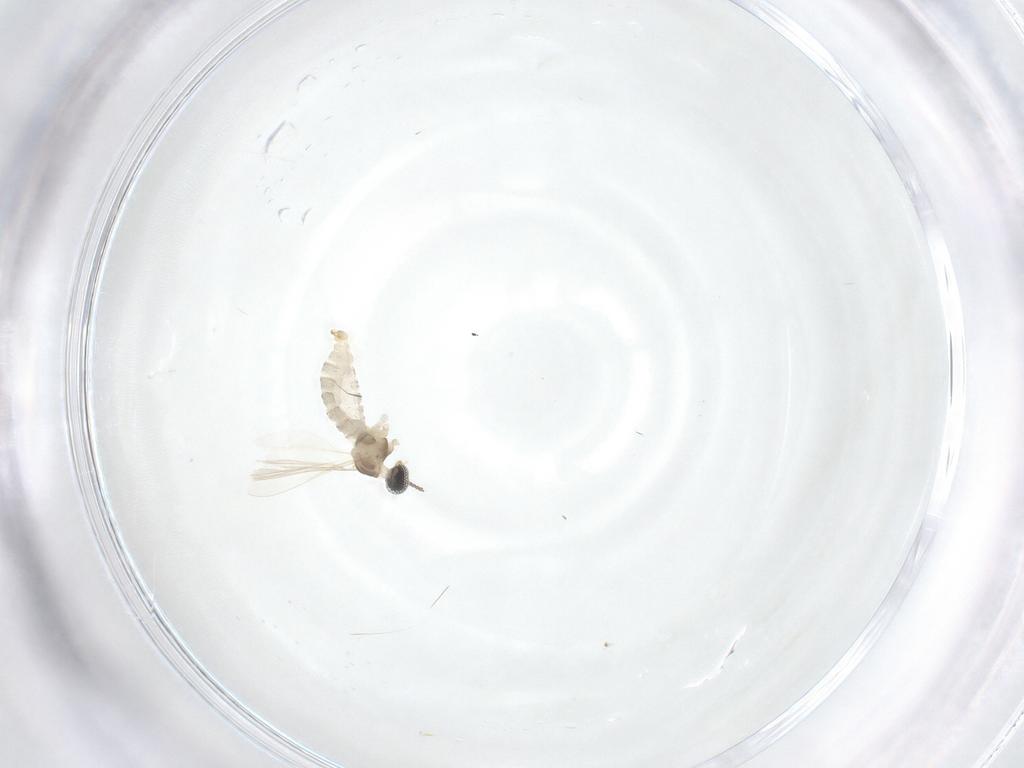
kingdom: Animalia
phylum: Arthropoda
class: Insecta
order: Diptera
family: Cecidomyiidae
